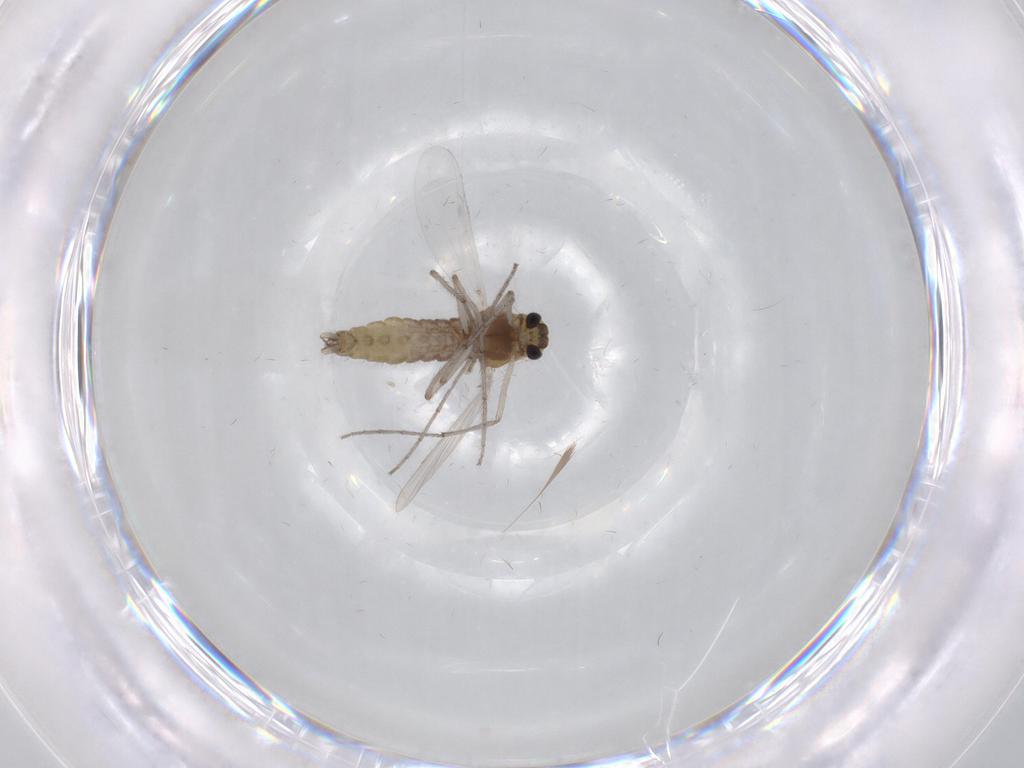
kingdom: Animalia
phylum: Arthropoda
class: Insecta
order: Diptera
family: Chironomidae
